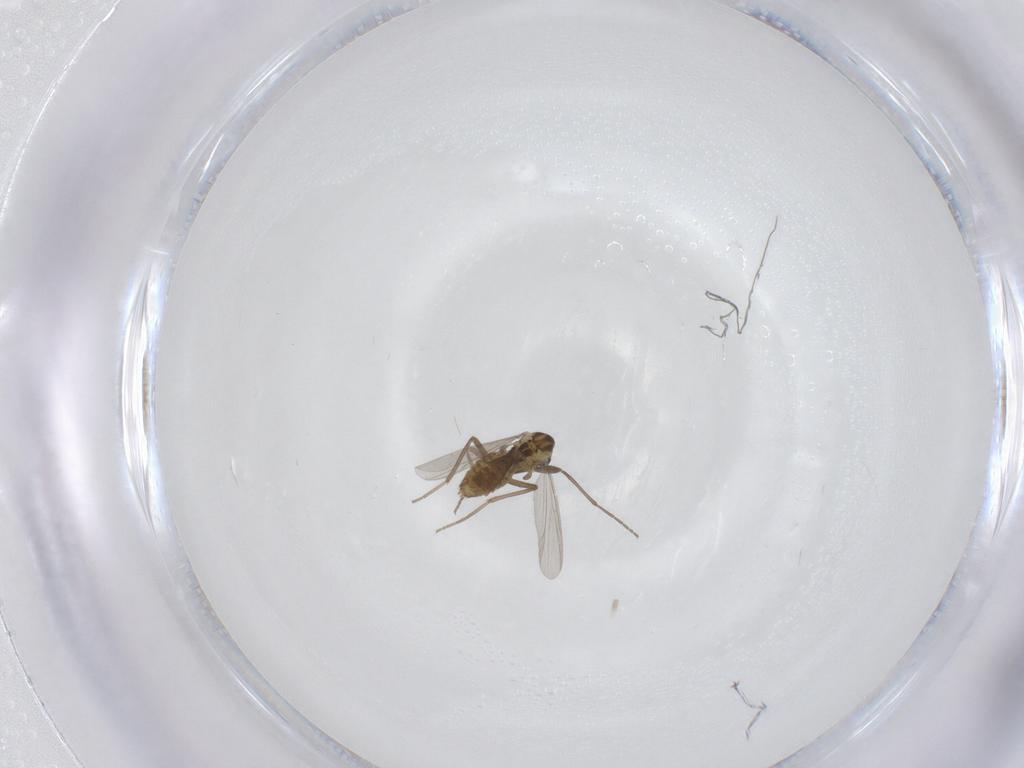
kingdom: Animalia
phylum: Arthropoda
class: Insecta
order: Diptera
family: Chironomidae
